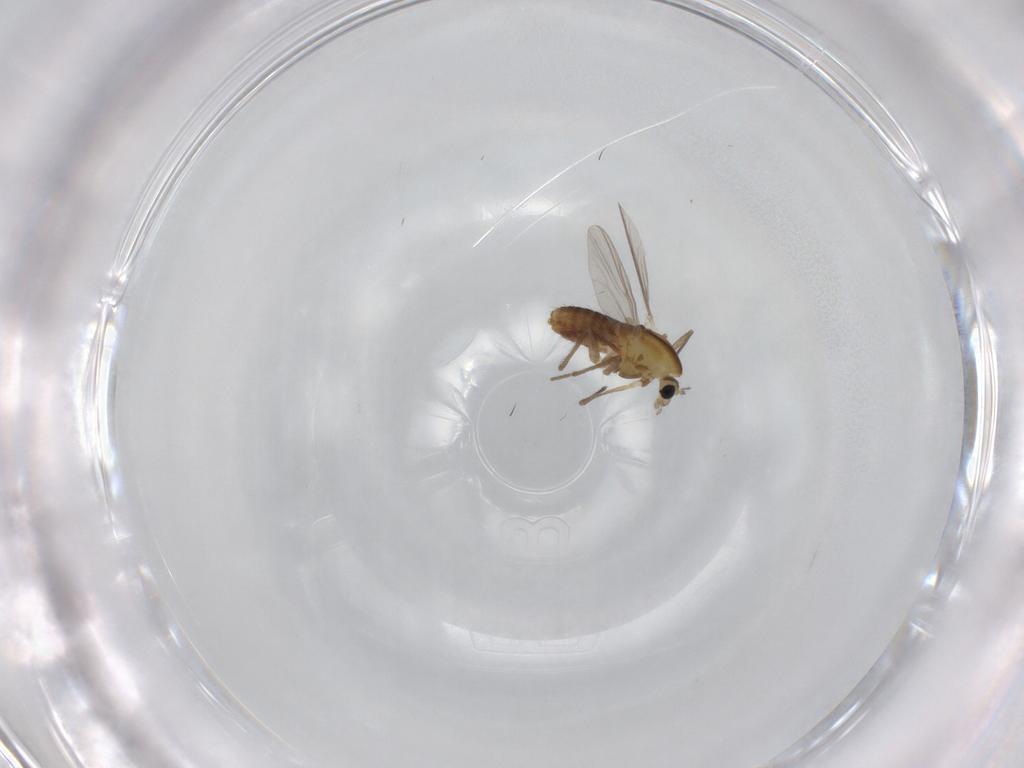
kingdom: Animalia
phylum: Arthropoda
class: Insecta
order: Diptera
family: Chironomidae
